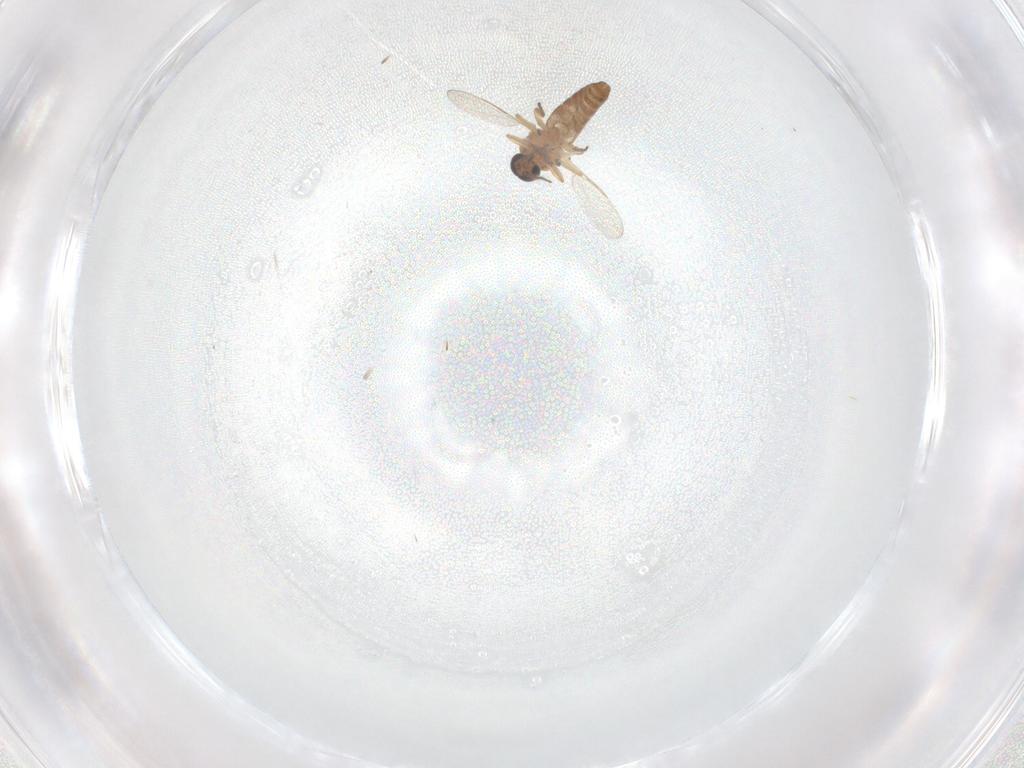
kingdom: Animalia
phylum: Arthropoda
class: Insecta
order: Diptera
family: Ceratopogonidae
